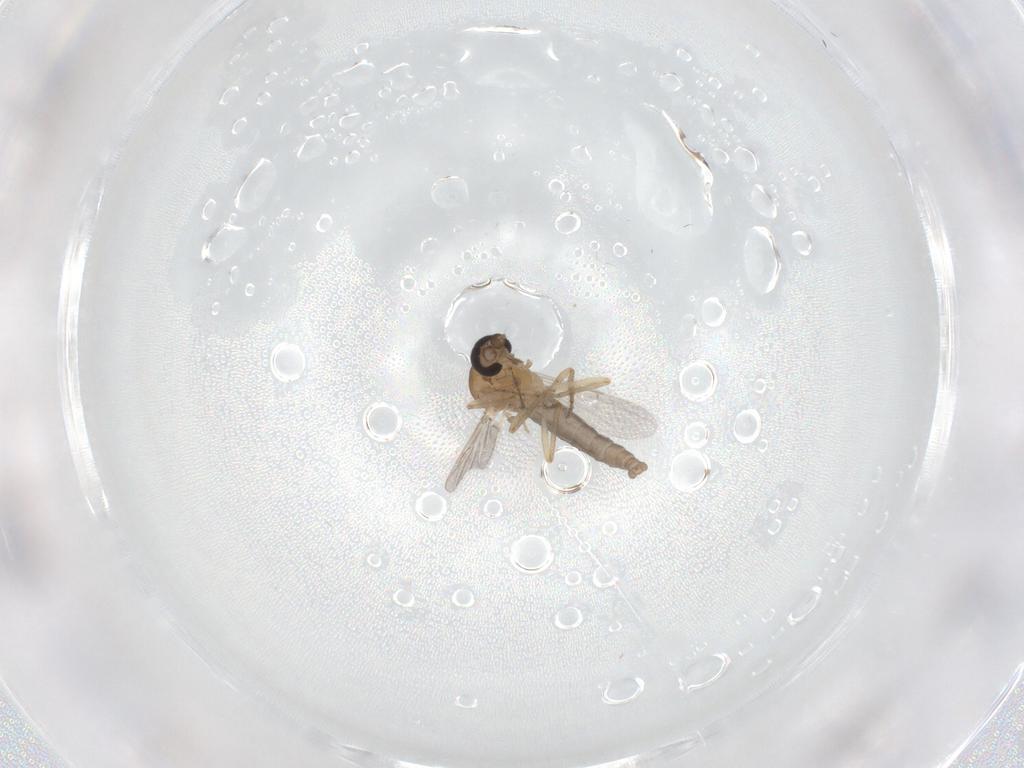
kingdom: Animalia
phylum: Arthropoda
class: Insecta
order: Diptera
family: Ceratopogonidae
